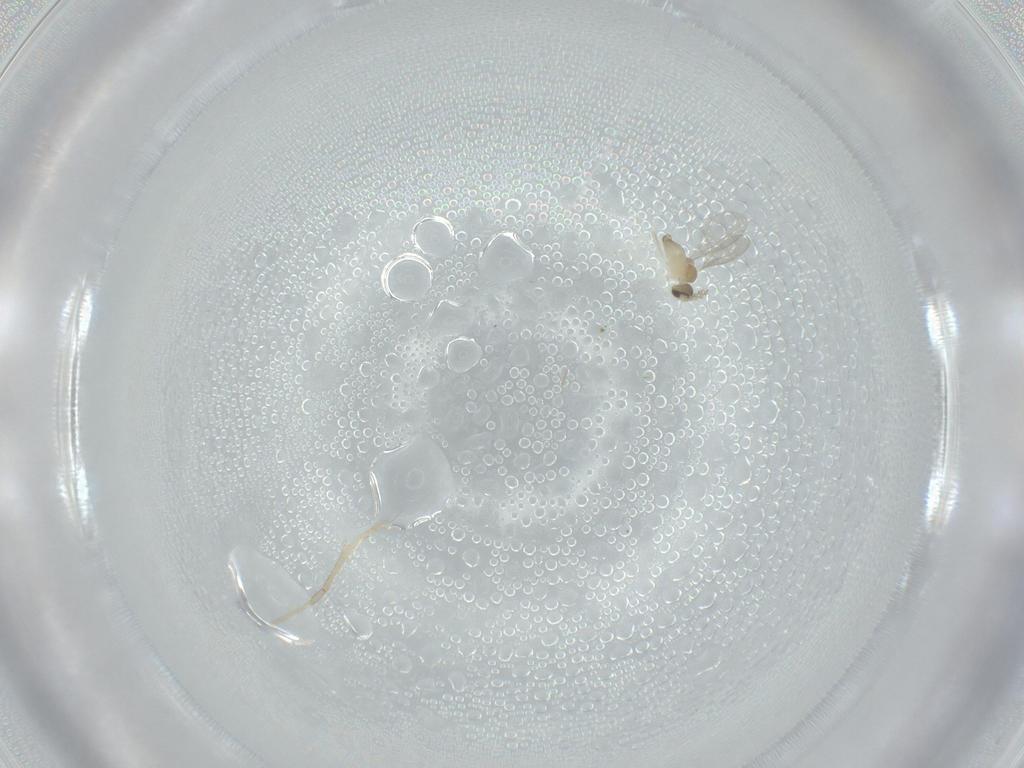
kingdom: Animalia
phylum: Arthropoda
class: Insecta
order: Diptera
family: Cecidomyiidae
